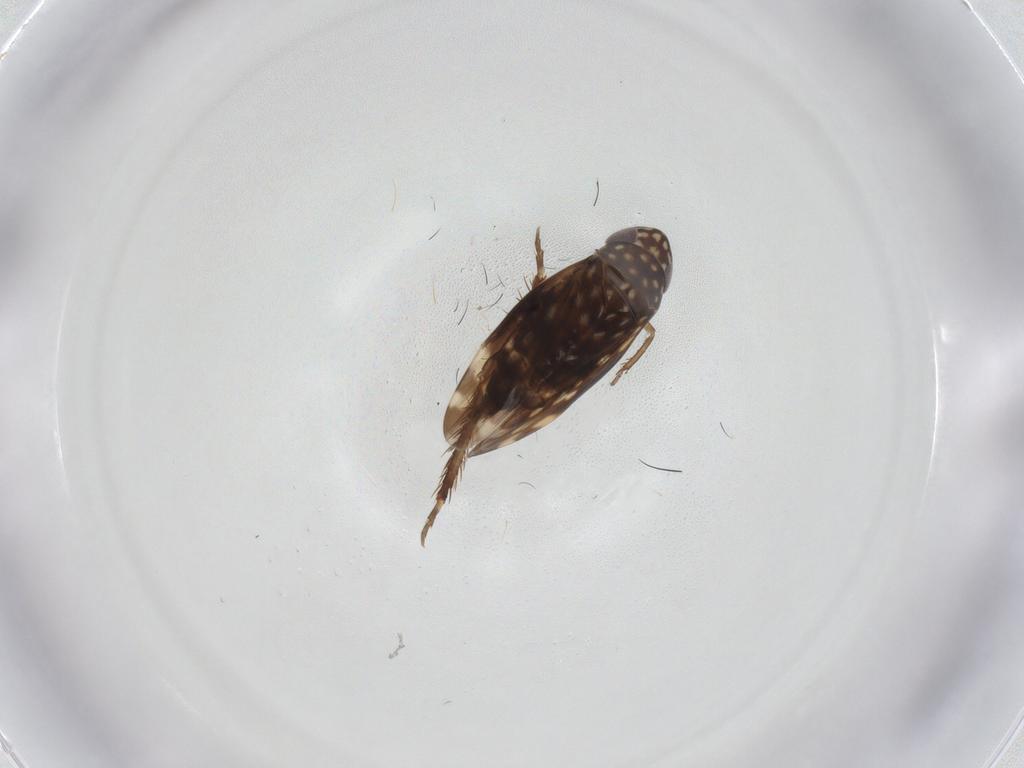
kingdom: Animalia
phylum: Arthropoda
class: Insecta
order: Hemiptera
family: Cicadellidae
